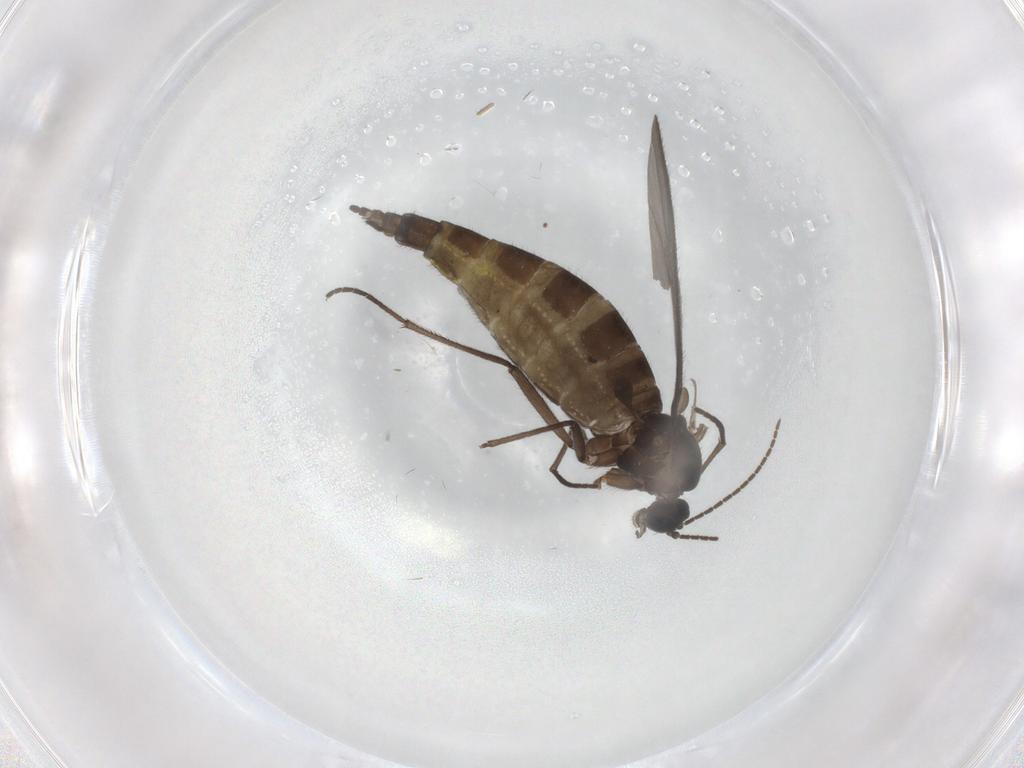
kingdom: Animalia
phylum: Arthropoda
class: Insecta
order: Diptera
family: Sciaridae
